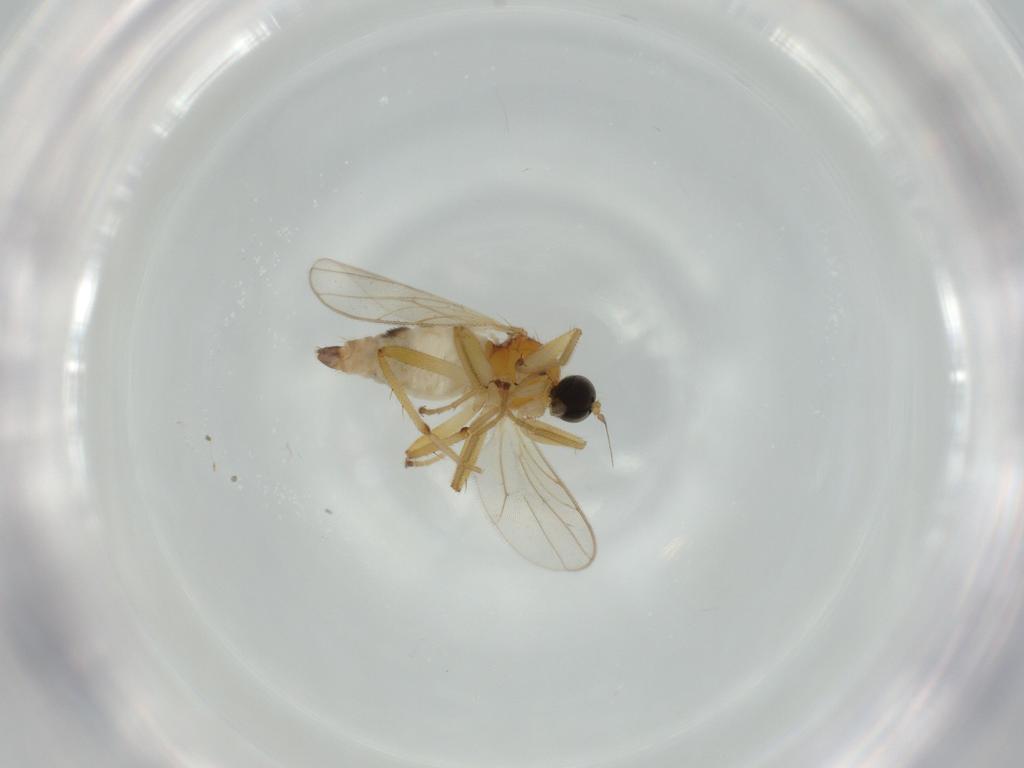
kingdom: Animalia
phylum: Arthropoda
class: Insecta
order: Diptera
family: Hybotidae
